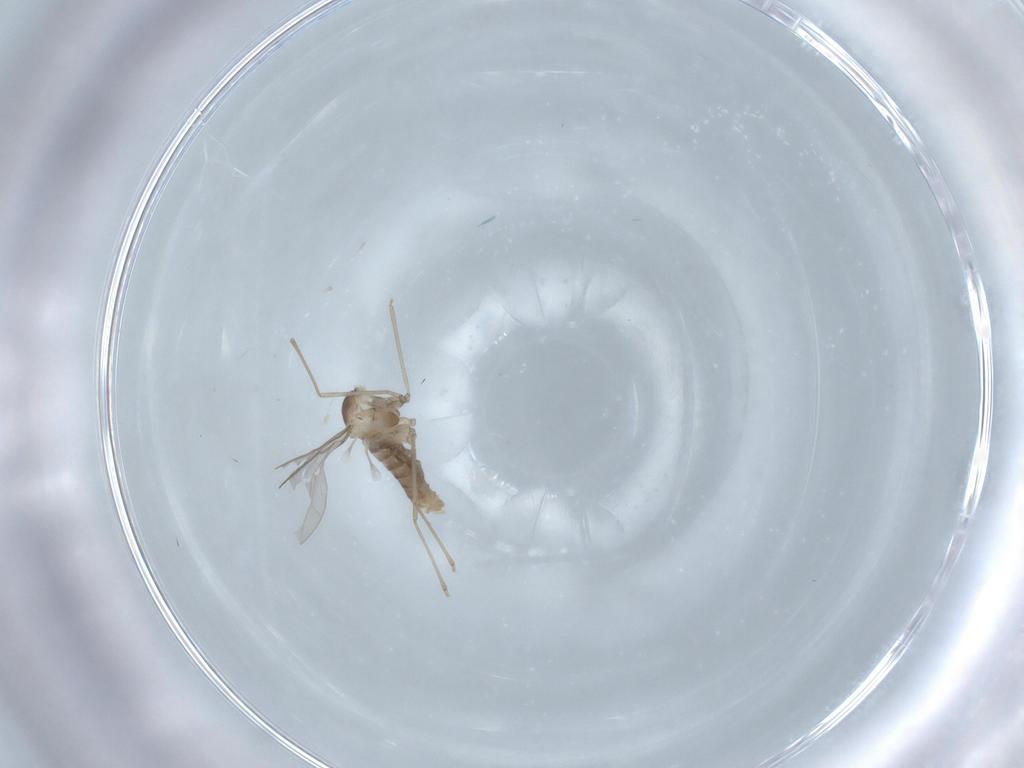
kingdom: Animalia
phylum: Arthropoda
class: Insecta
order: Diptera
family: Cecidomyiidae
